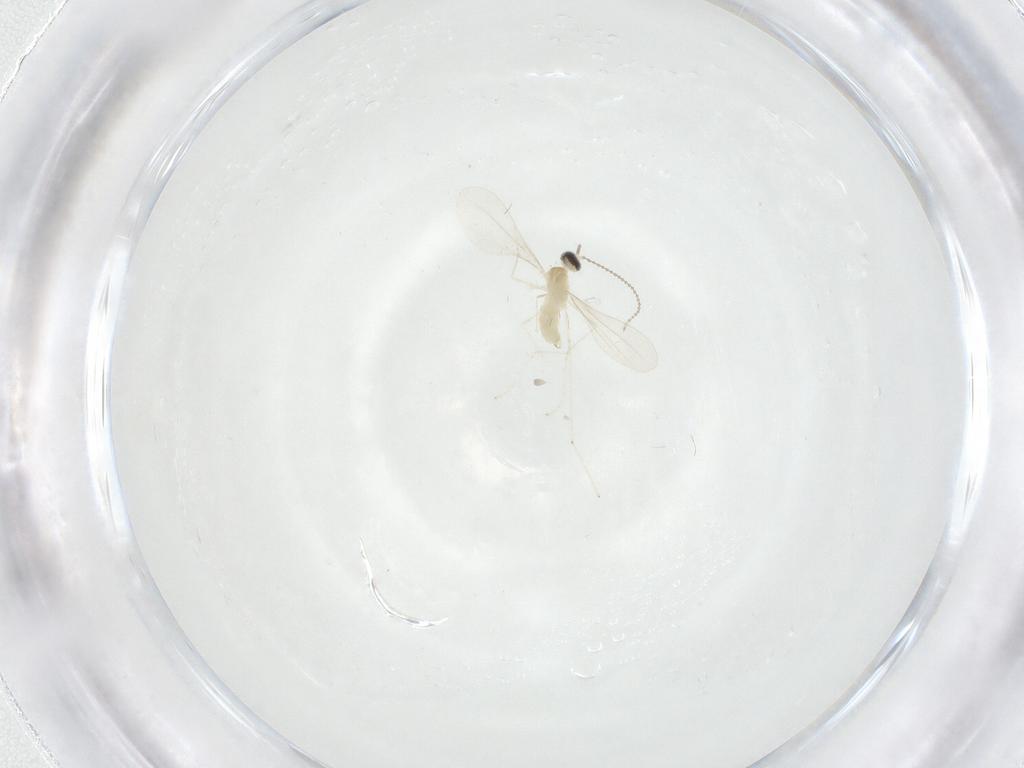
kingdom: Animalia
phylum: Arthropoda
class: Insecta
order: Diptera
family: Cecidomyiidae
